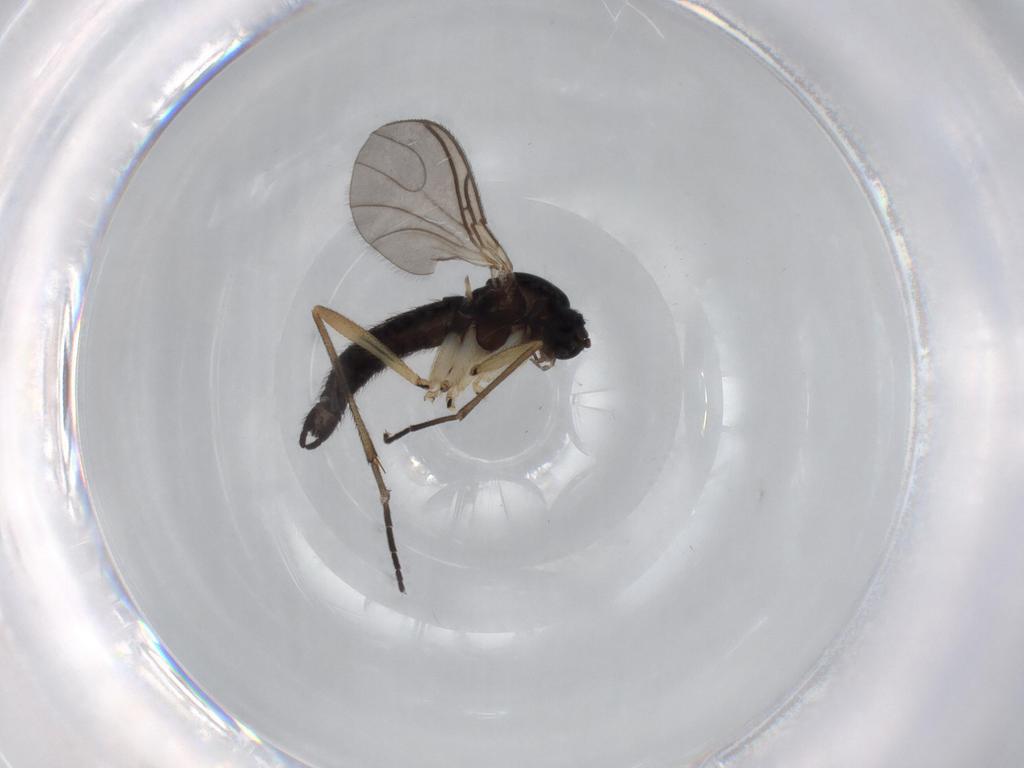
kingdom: Animalia
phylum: Arthropoda
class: Insecta
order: Diptera
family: Sciaridae
